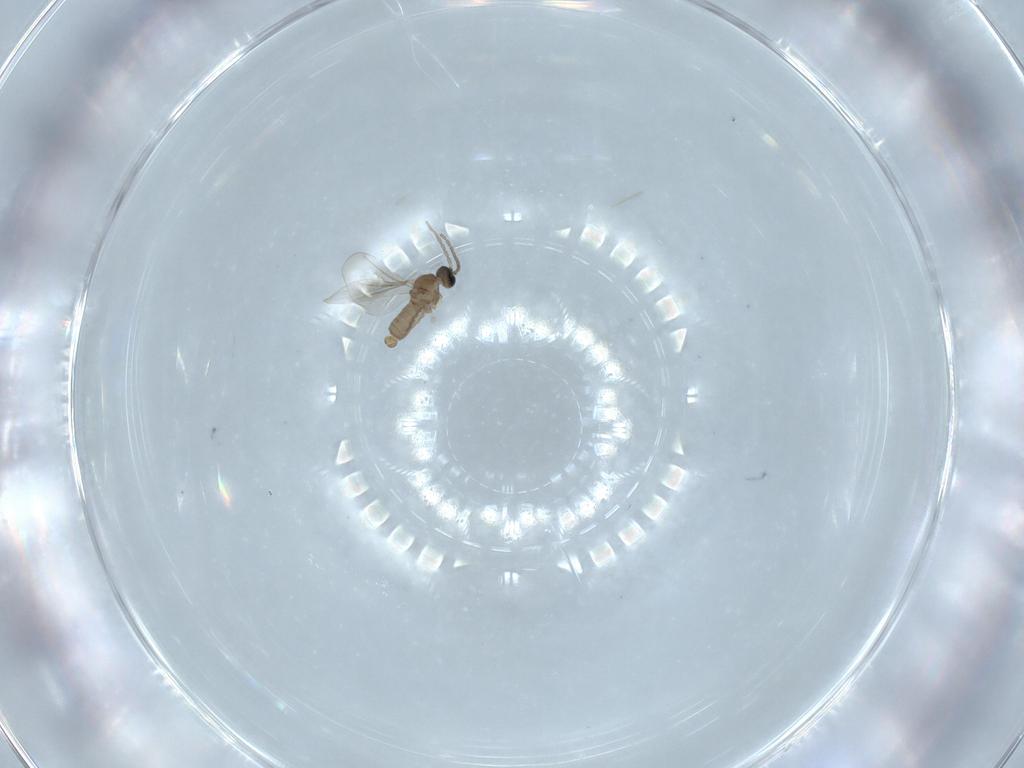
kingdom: Animalia
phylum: Arthropoda
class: Insecta
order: Diptera
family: Cecidomyiidae
